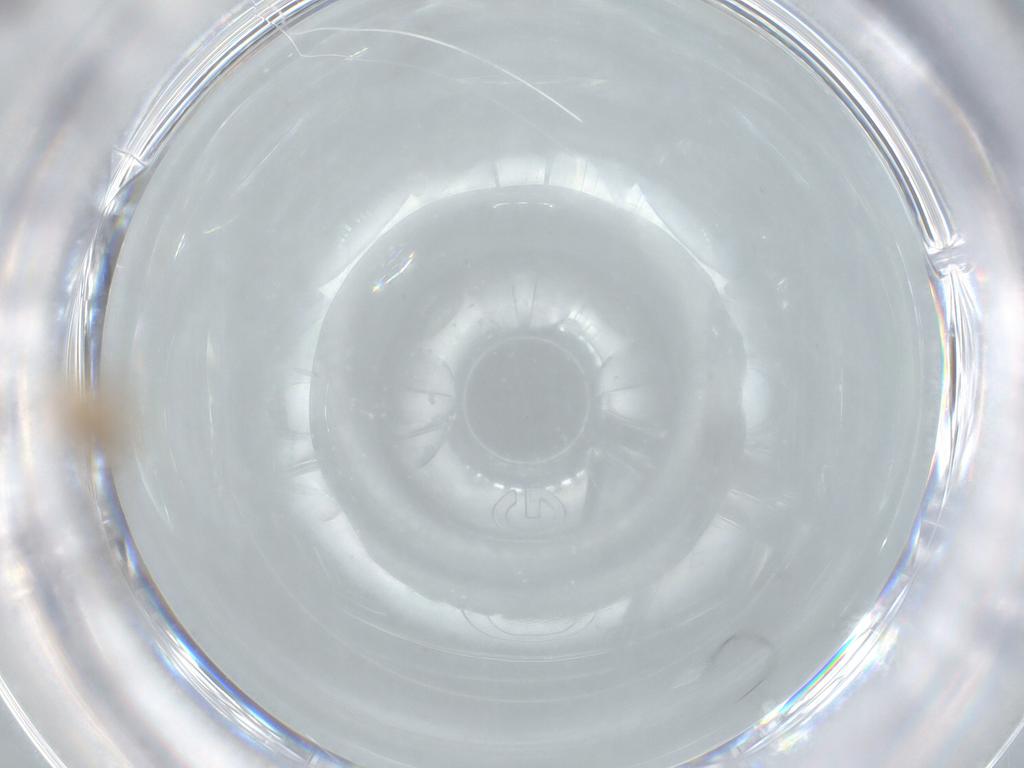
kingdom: Animalia
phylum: Arthropoda
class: Insecta
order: Psocodea
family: Ectopsocidae
